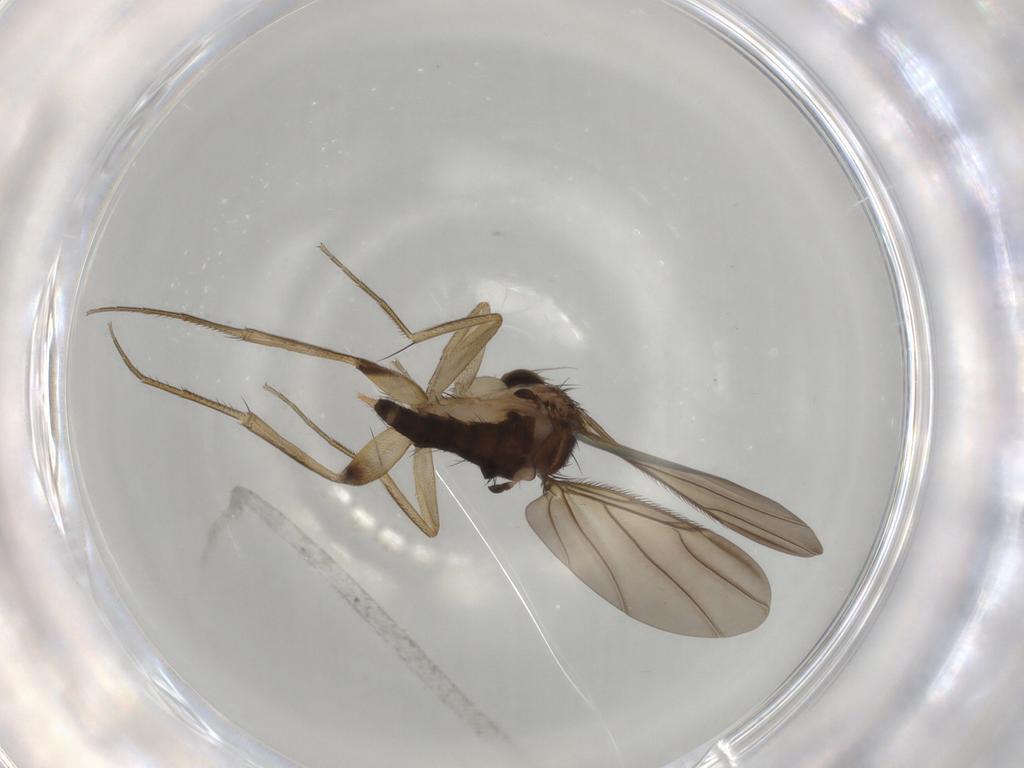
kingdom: Animalia
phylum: Arthropoda
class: Insecta
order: Diptera
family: Phoridae
